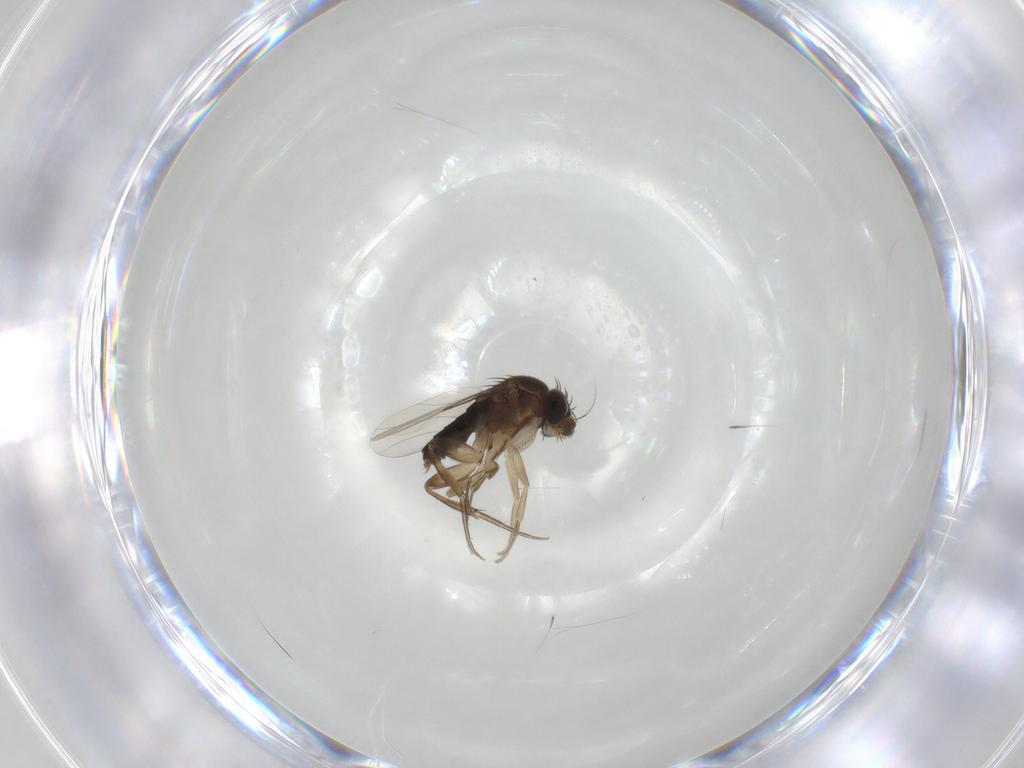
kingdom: Animalia
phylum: Arthropoda
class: Insecta
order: Diptera
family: Phoridae
